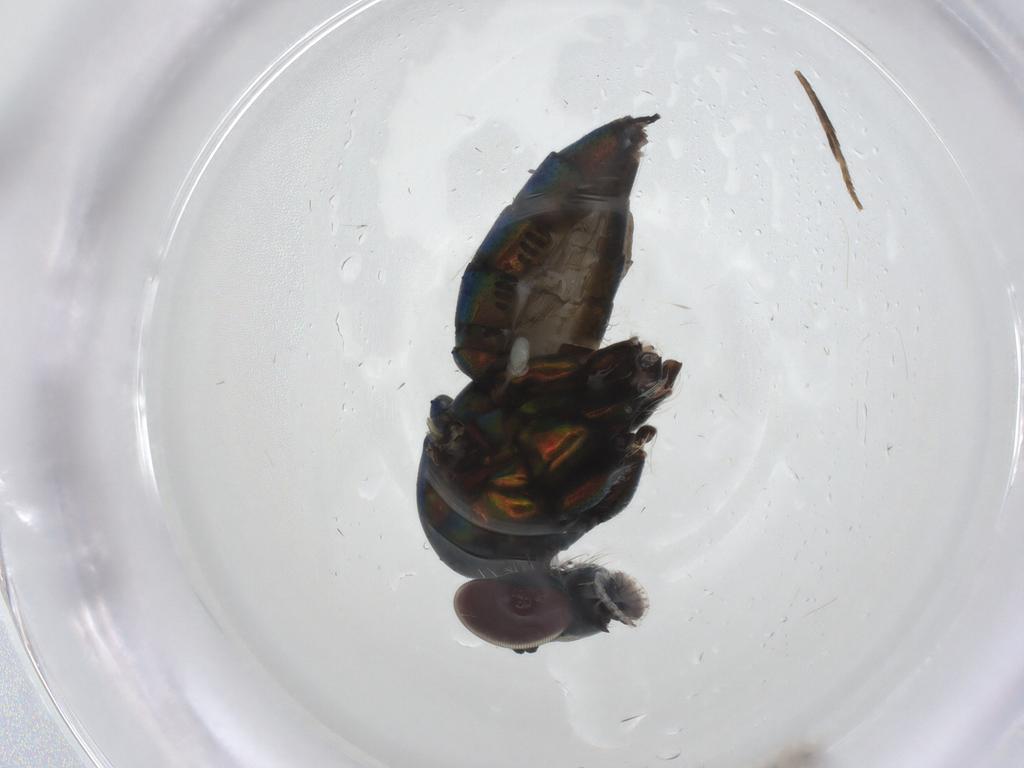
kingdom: Animalia
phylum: Arthropoda
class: Insecta
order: Diptera
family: Dolichopodidae
